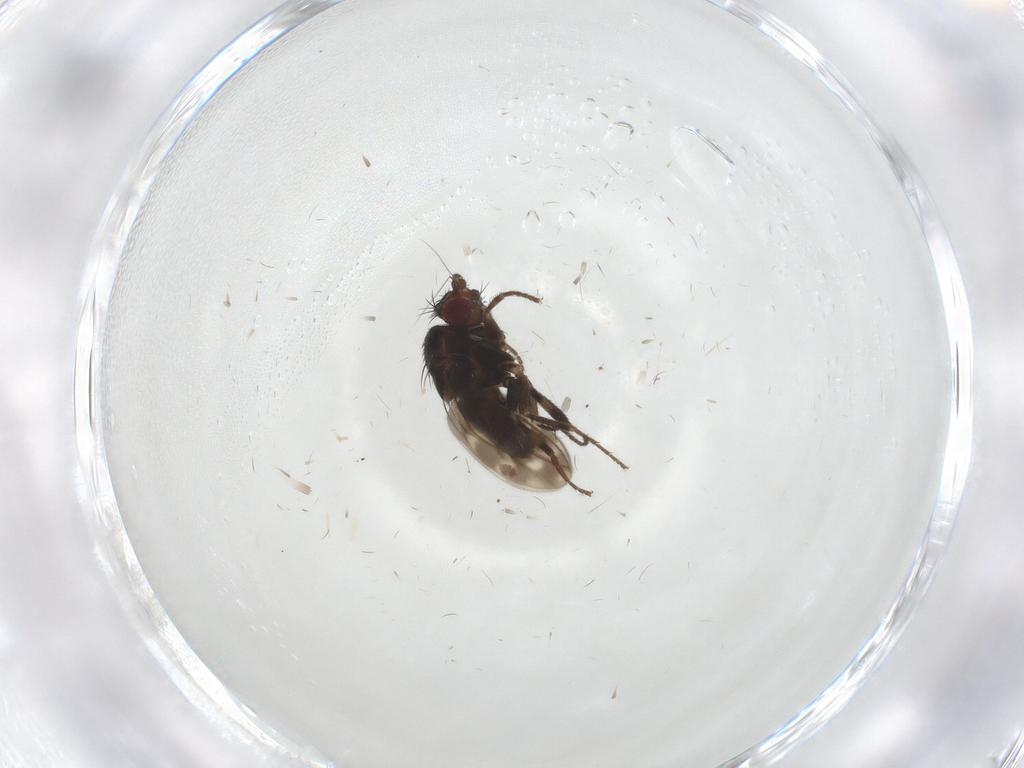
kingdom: Animalia
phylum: Arthropoda
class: Insecta
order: Diptera
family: Sphaeroceridae
